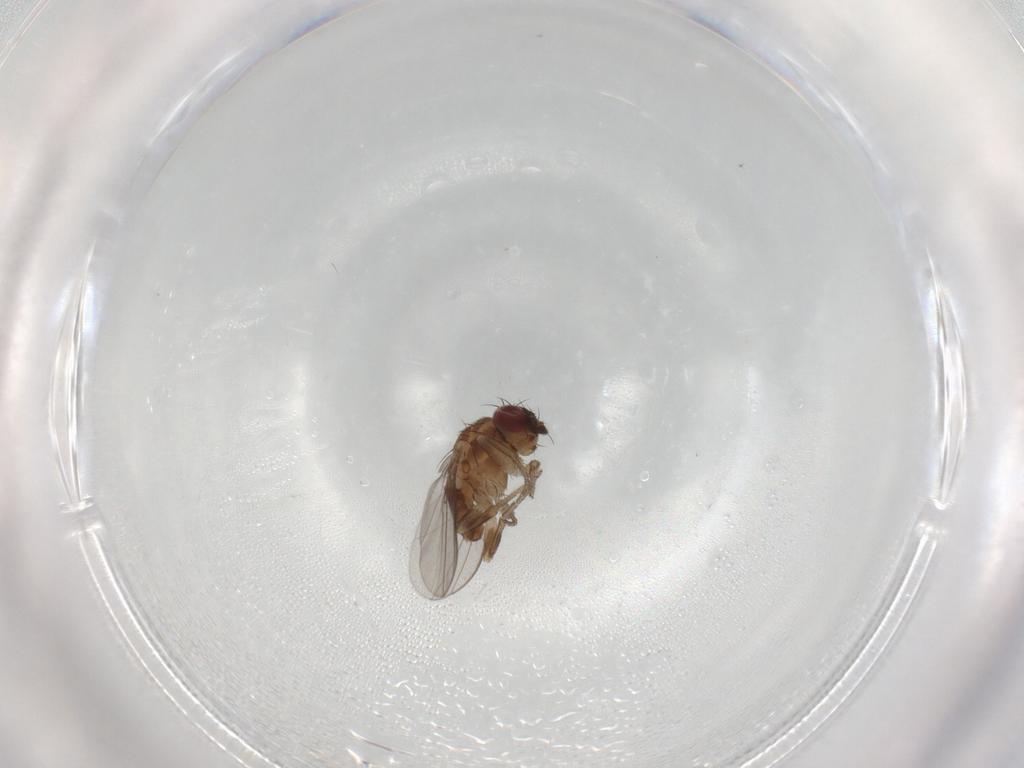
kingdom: Animalia
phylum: Arthropoda
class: Insecta
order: Diptera
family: Milichiidae
